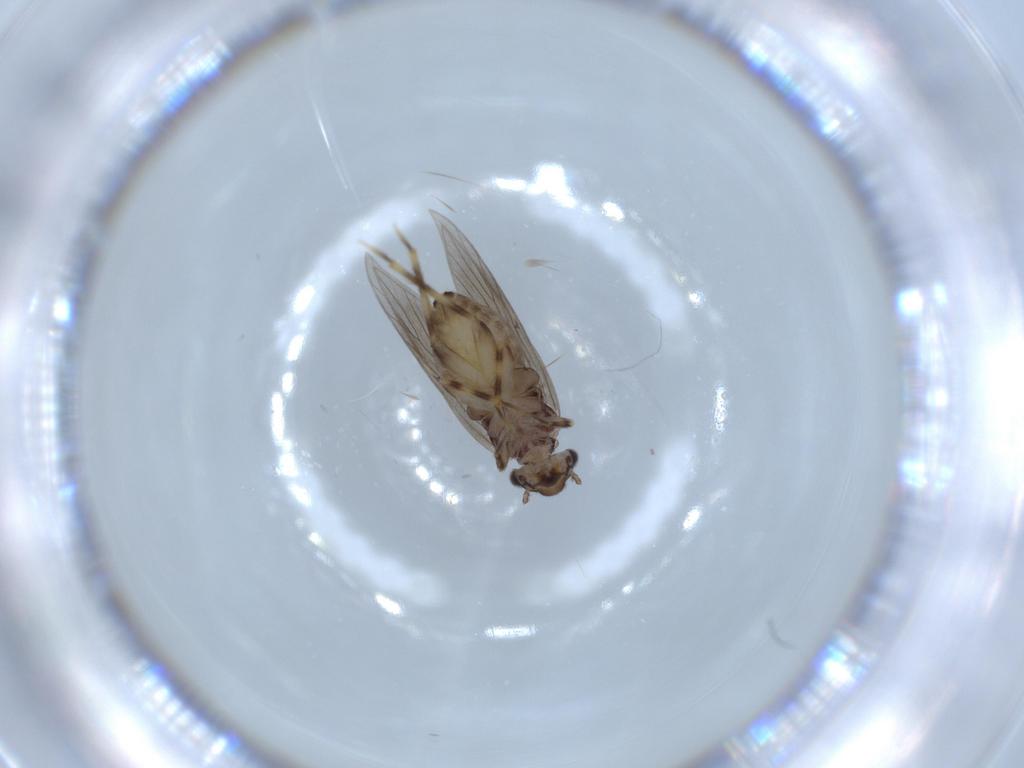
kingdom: Animalia
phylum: Arthropoda
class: Insecta
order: Psocodea
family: Lepidopsocidae
